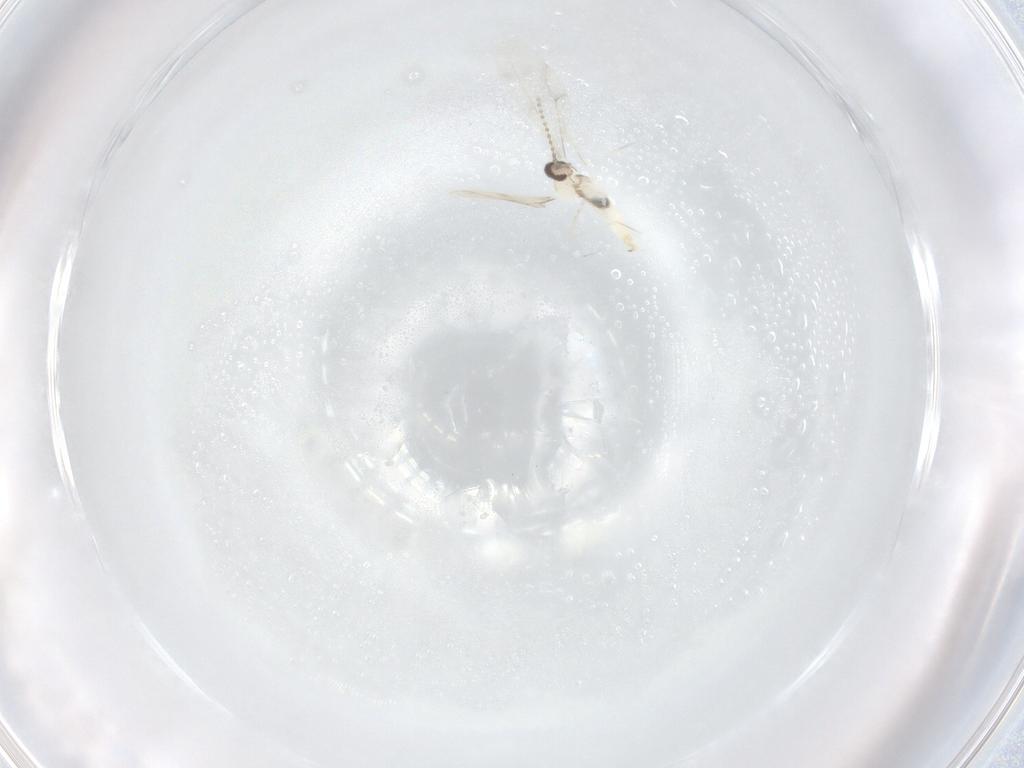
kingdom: Animalia
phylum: Arthropoda
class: Insecta
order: Diptera
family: Cecidomyiidae
